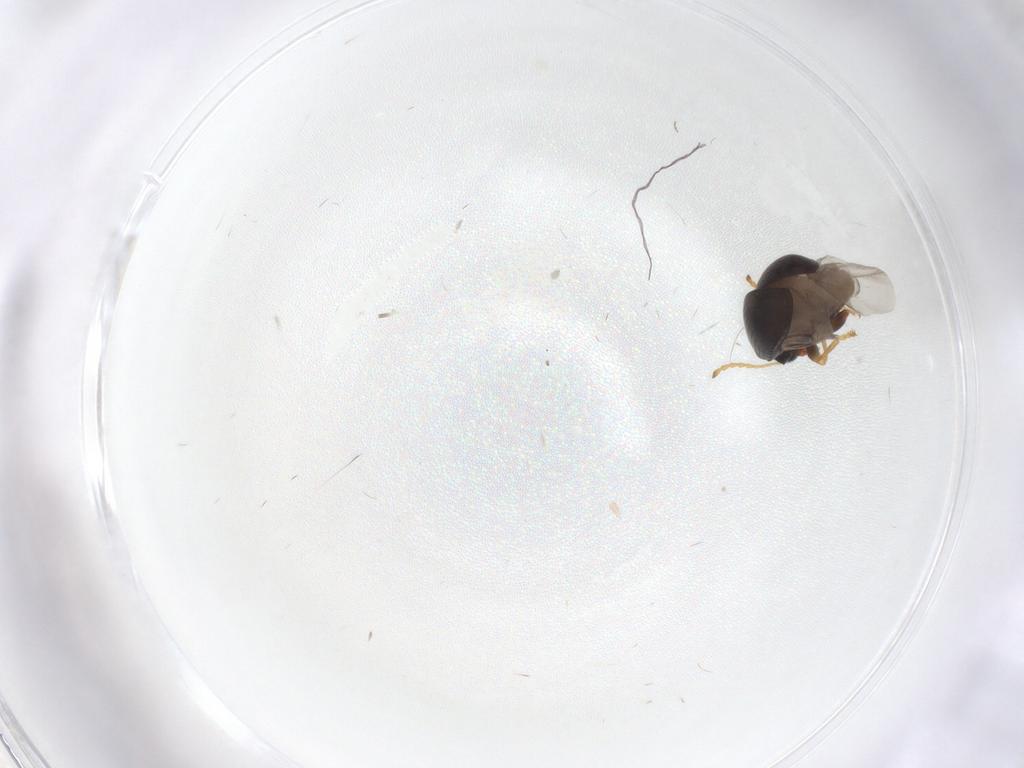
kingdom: Animalia
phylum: Arthropoda
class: Insecta
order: Coleoptera
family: Chrysomelidae
